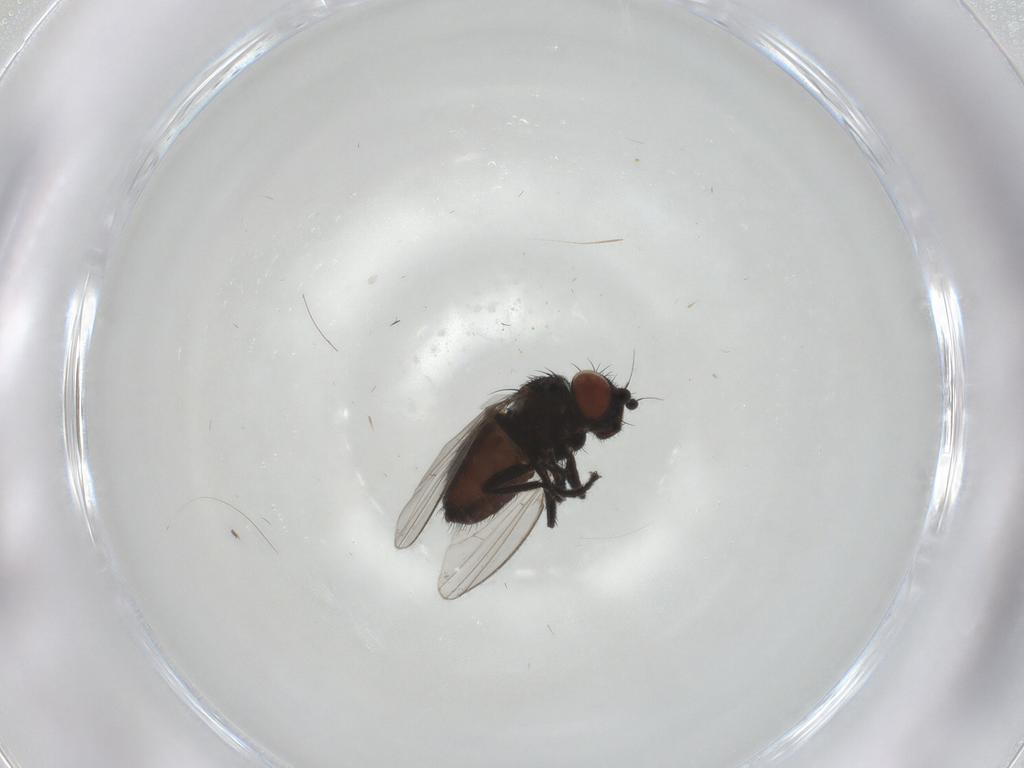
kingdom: Animalia
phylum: Arthropoda
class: Insecta
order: Diptera
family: Milichiidae
